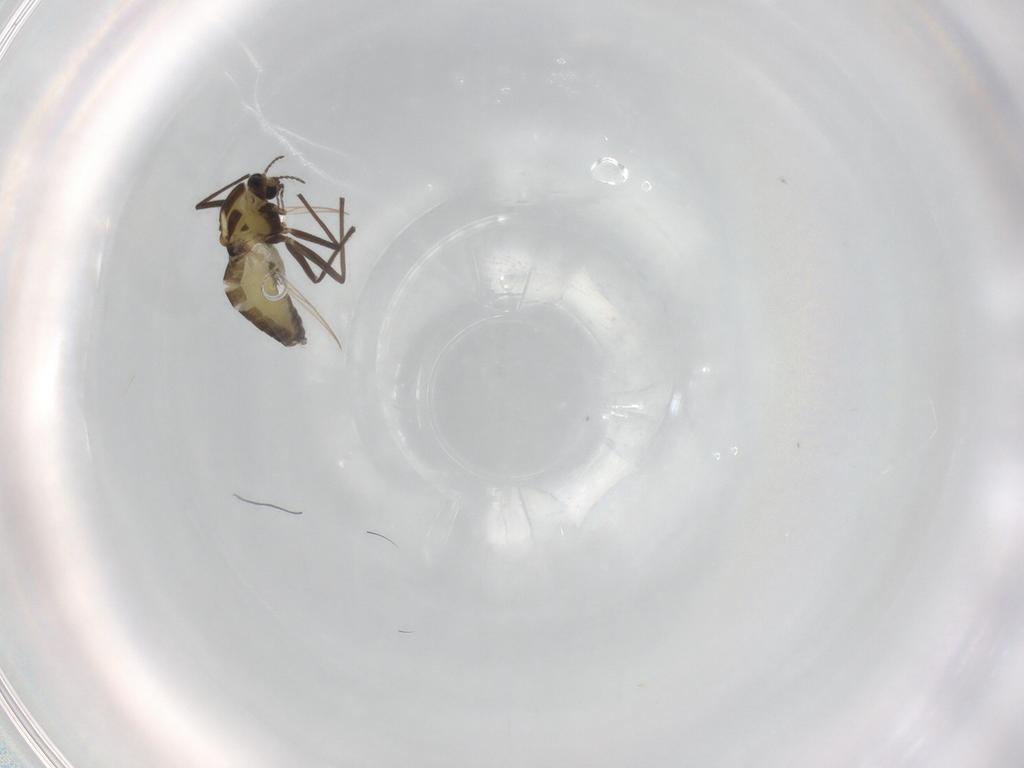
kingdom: Animalia
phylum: Arthropoda
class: Insecta
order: Diptera
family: Chironomidae
